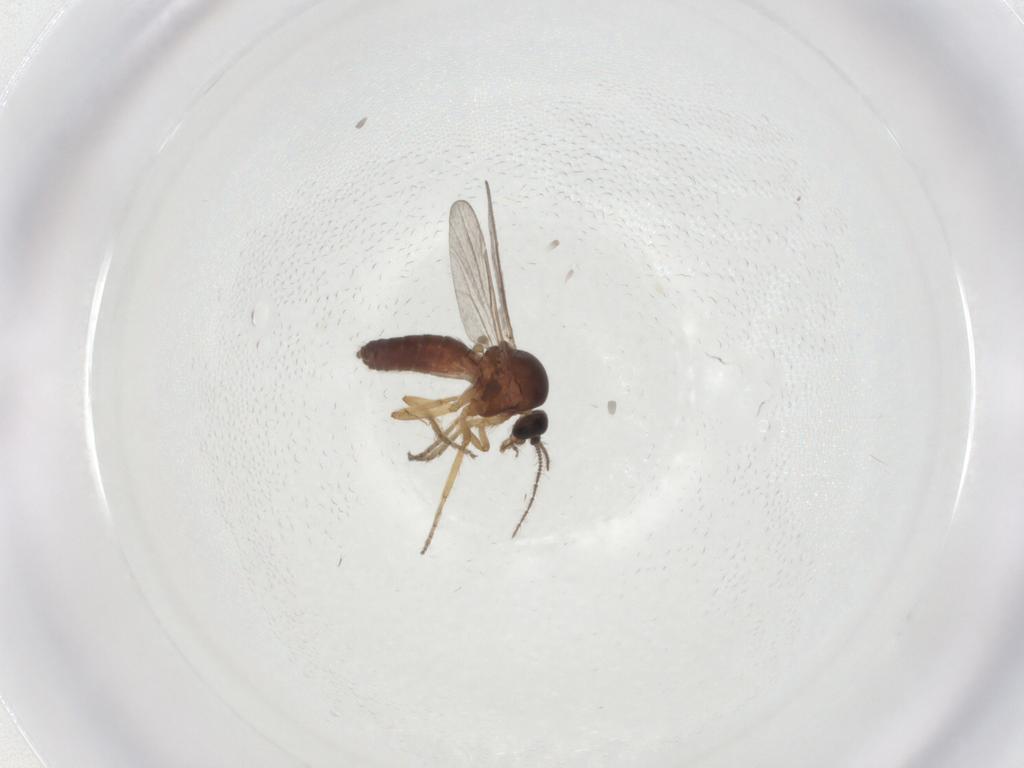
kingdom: Animalia
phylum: Arthropoda
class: Insecta
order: Diptera
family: Ceratopogonidae
